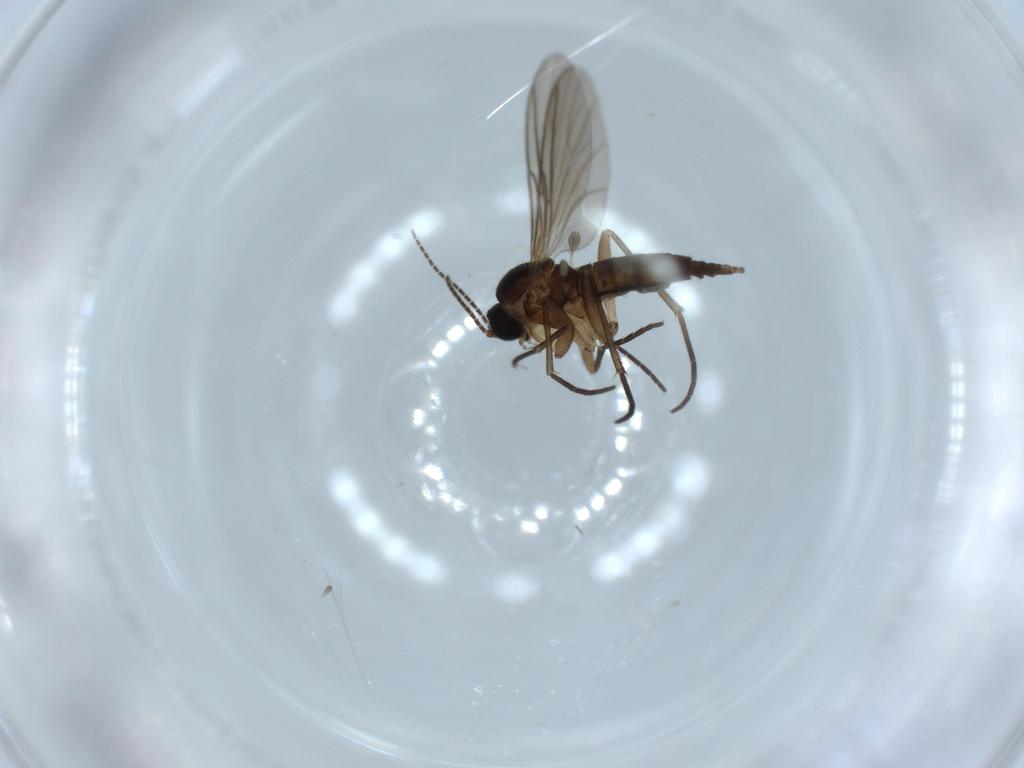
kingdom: Animalia
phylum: Arthropoda
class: Insecta
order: Diptera
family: Sciaridae
